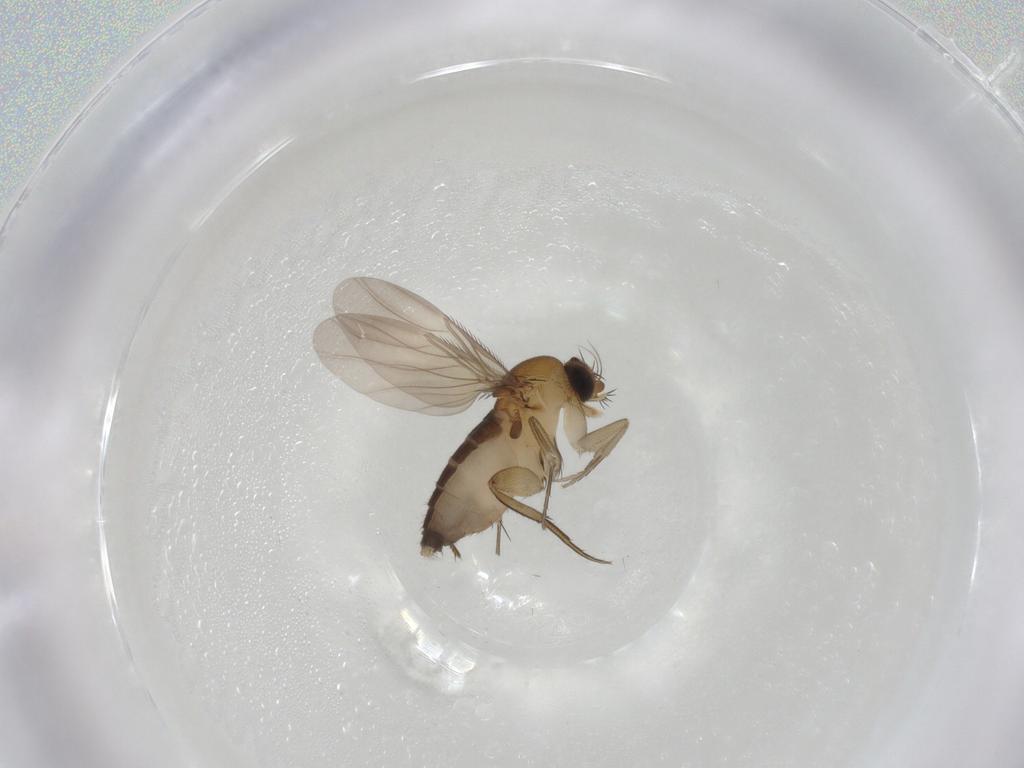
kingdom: Animalia
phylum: Arthropoda
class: Insecta
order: Diptera
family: Phoridae
